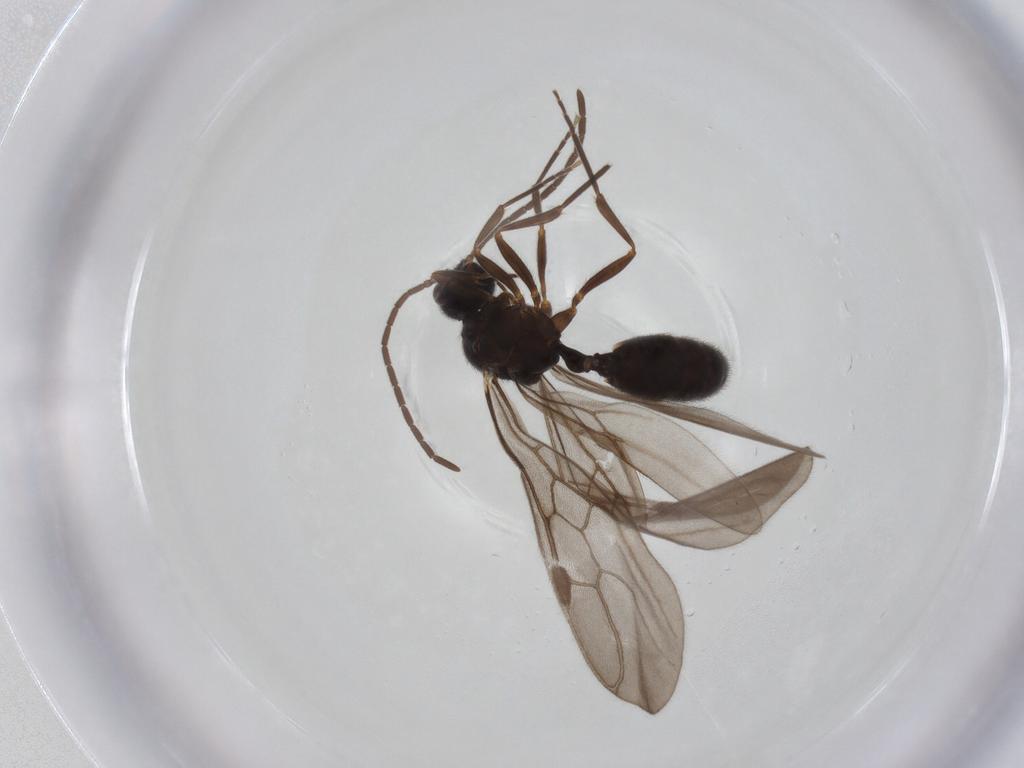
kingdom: Animalia
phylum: Arthropoda
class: Insecta
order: Hymenoptera
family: Formicidae
